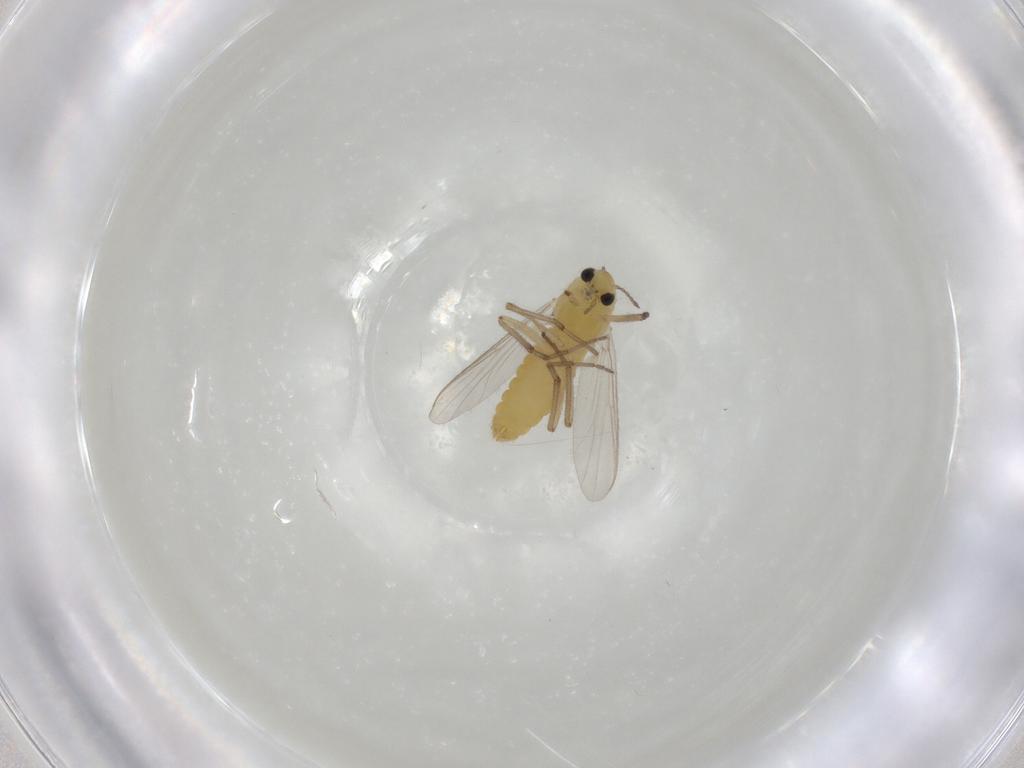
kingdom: Animalia
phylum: Arthropoda
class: Insecta
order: Diptera
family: Chironomidae
